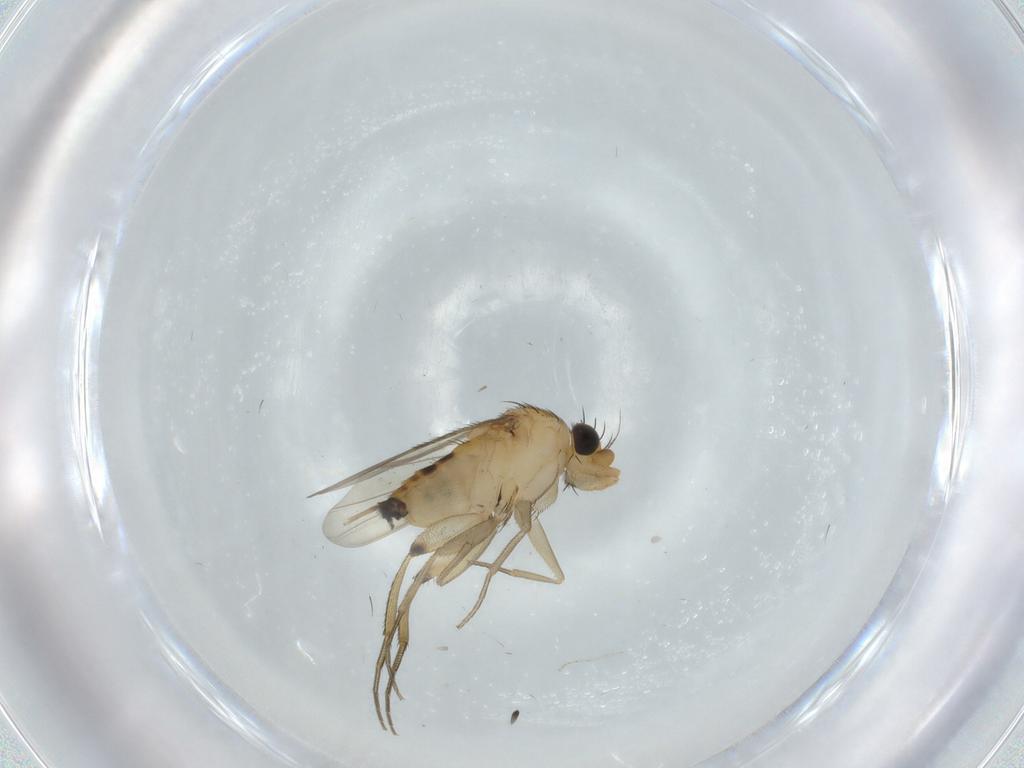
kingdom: Animalia
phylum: Arthropoda
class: Insecta
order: Diptera
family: Phoridae
